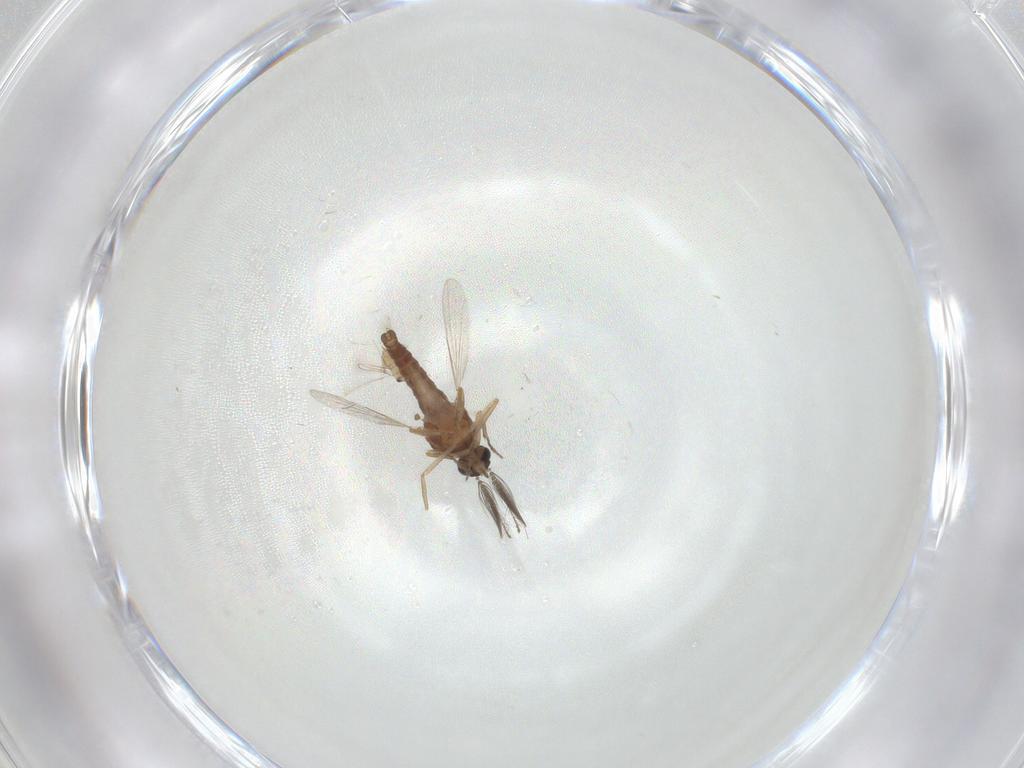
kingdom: Animalia
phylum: Arthropoda
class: Insecta
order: Diptera
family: Ceratopogonidae
